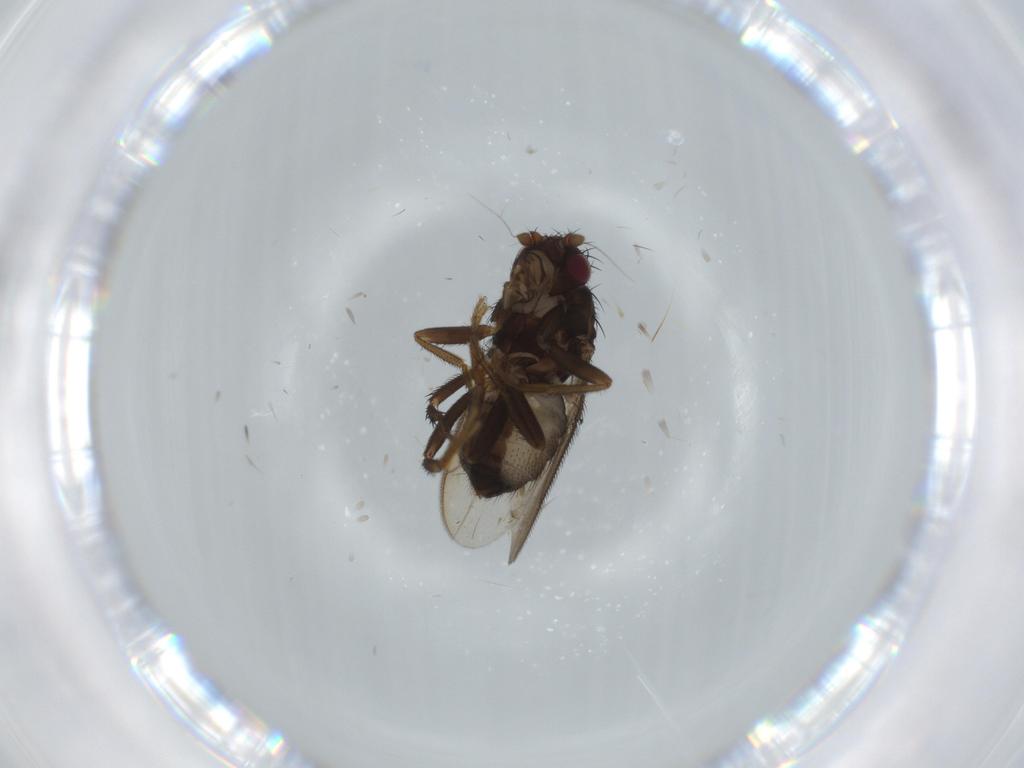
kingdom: Animalia
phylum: Arthropoda
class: Insecta
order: Diptera
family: Sphaeroceridae
